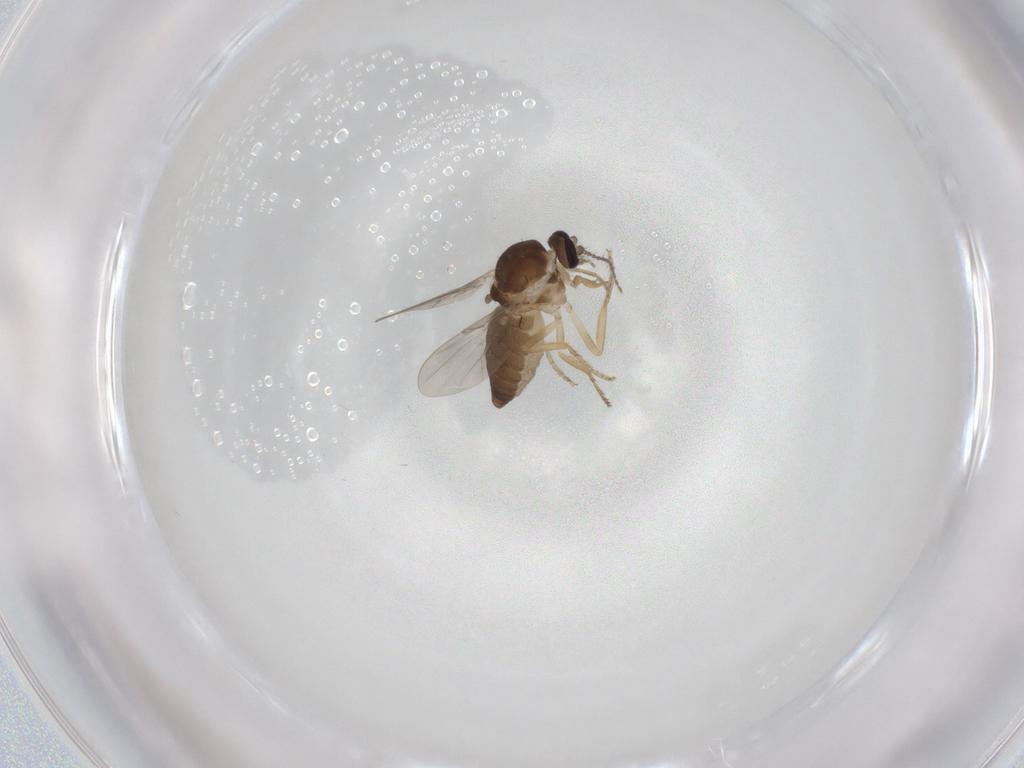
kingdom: Animalia
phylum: Arthropoda
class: Insecta
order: Diptera
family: Ceratopogonidae
